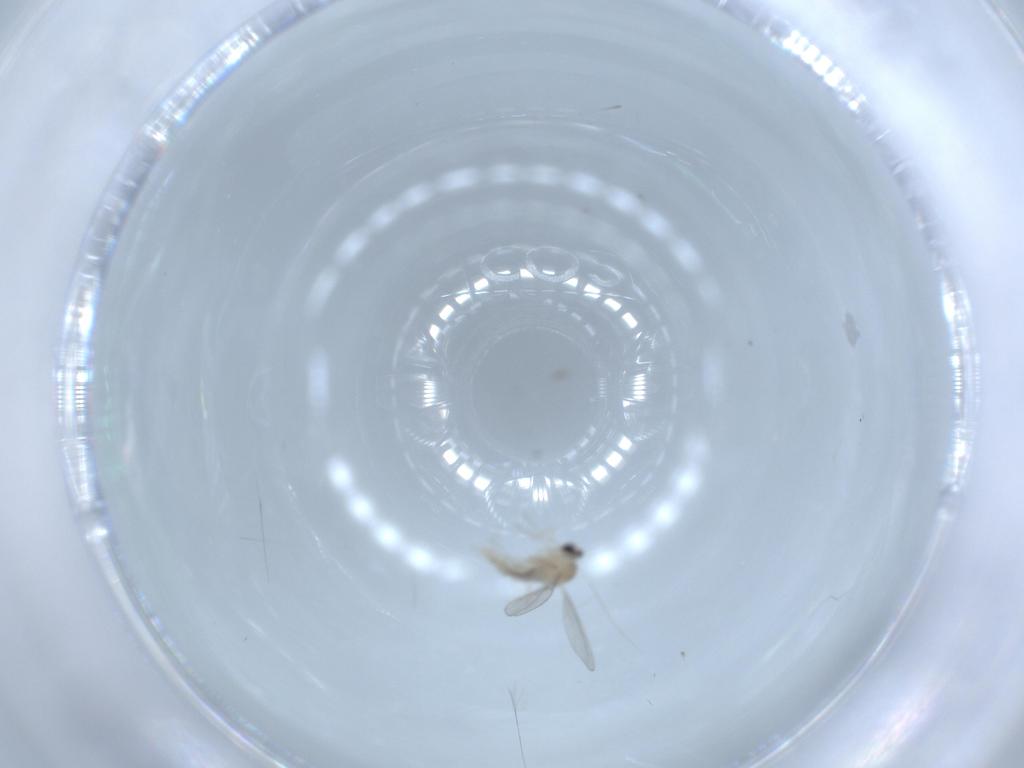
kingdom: Animalia
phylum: Arthropoda
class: Insecta
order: Diptera
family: Cecidomyiidae
